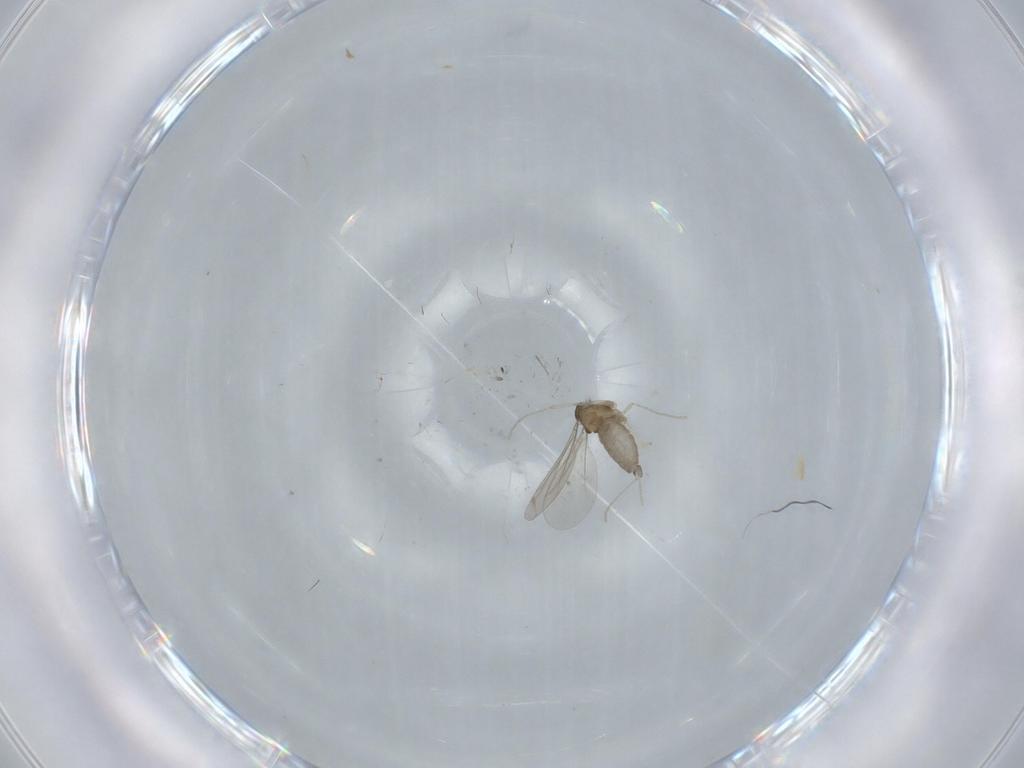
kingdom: Animalia
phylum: Arthropoda
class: Insecta
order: Diptera
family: Cecidomyiidae
